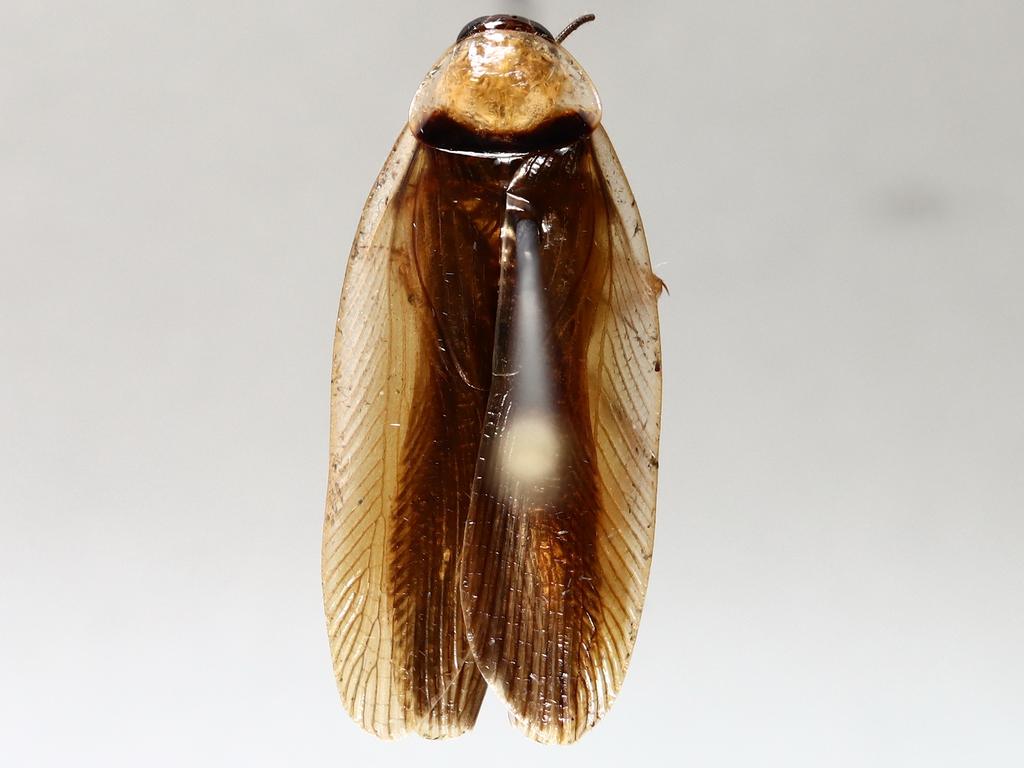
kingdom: Animalia
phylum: Arthropoda
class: Insecta
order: Diptera
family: Cecidomyiidae
